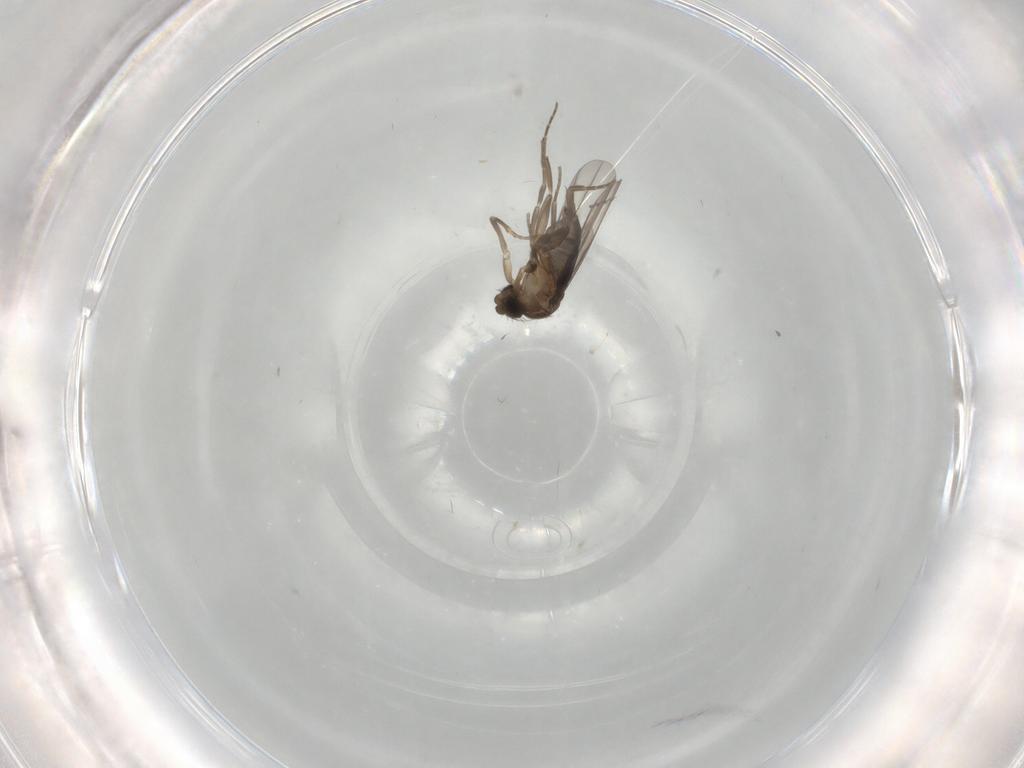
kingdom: Animalia
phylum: Arthropoda
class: Insecta
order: Diptera
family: Cecidomyiidae
